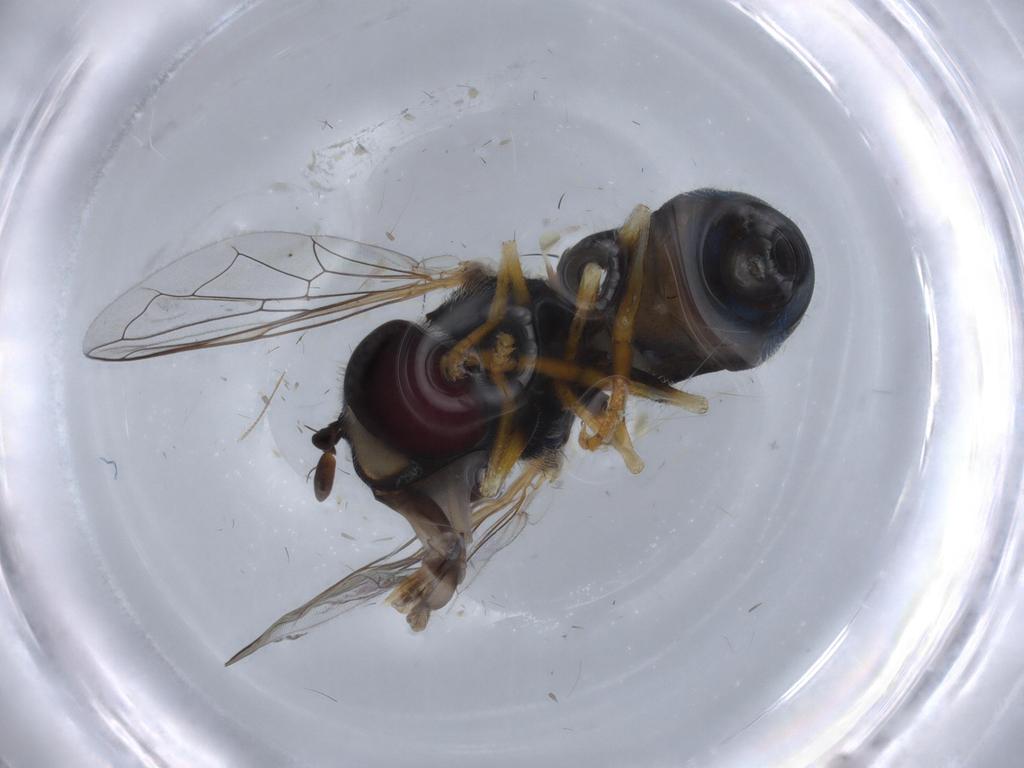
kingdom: Animalia
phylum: Arthropoda
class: Insecta
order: Diptera
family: Syrphidae
